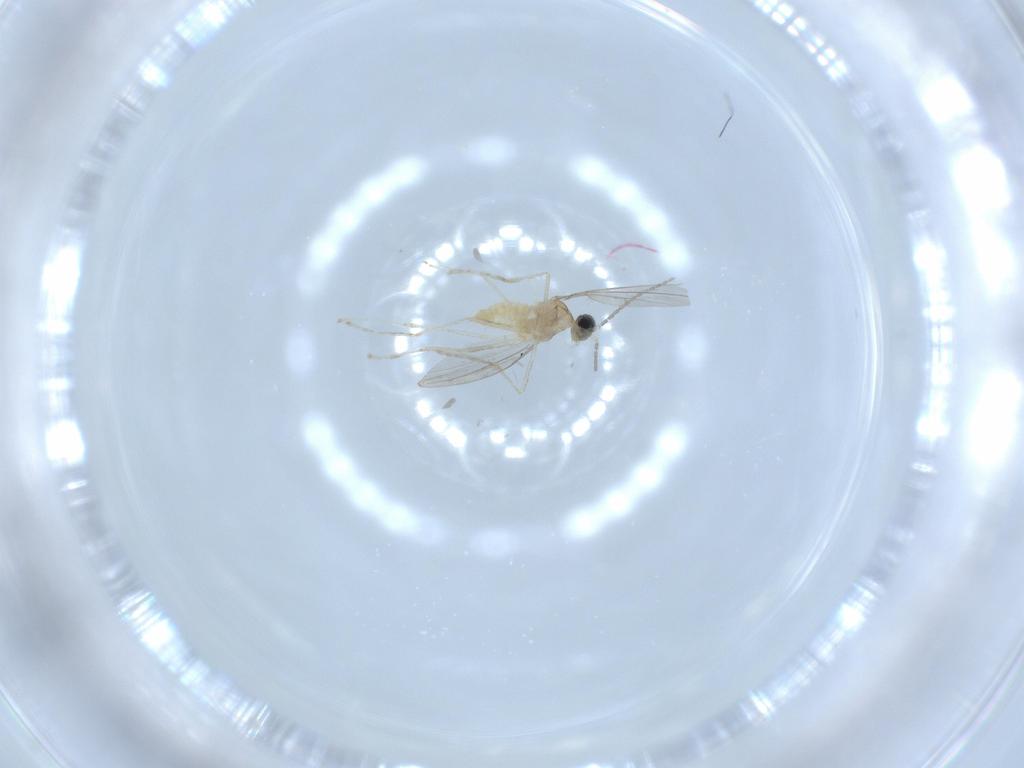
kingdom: Animalia
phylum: Arthropoda
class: Insecta
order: Diptera
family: Cecidomyiidae
